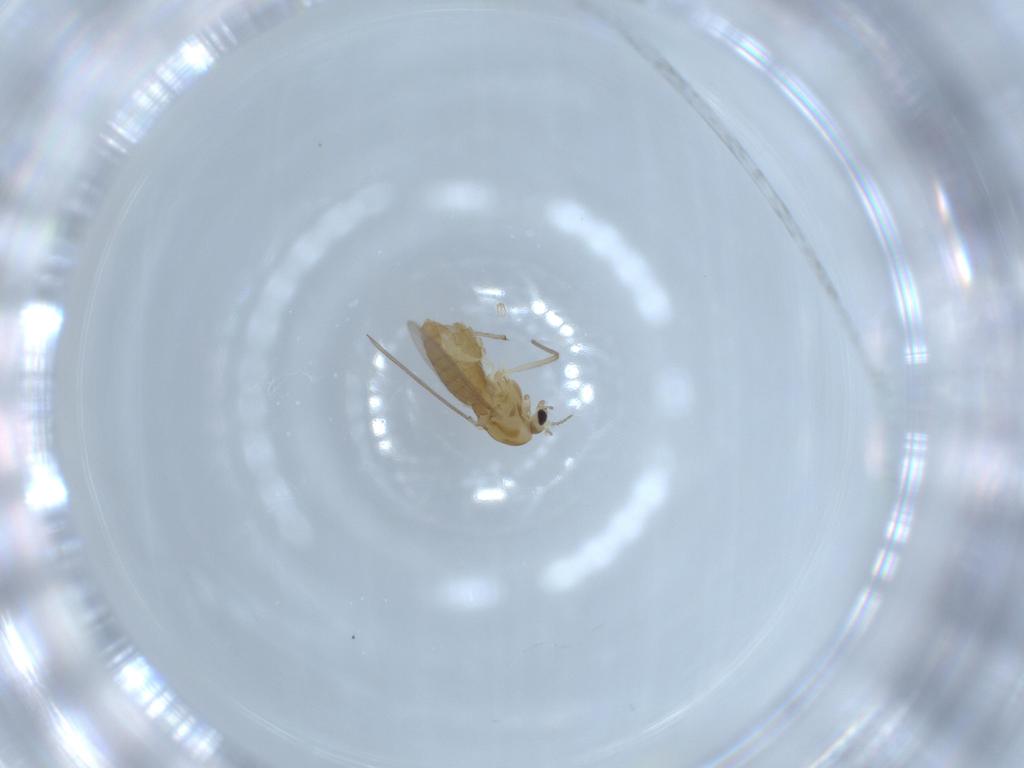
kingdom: Animalia
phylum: Arthropoda
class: Insecta
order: Diptera
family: Chironomidae
